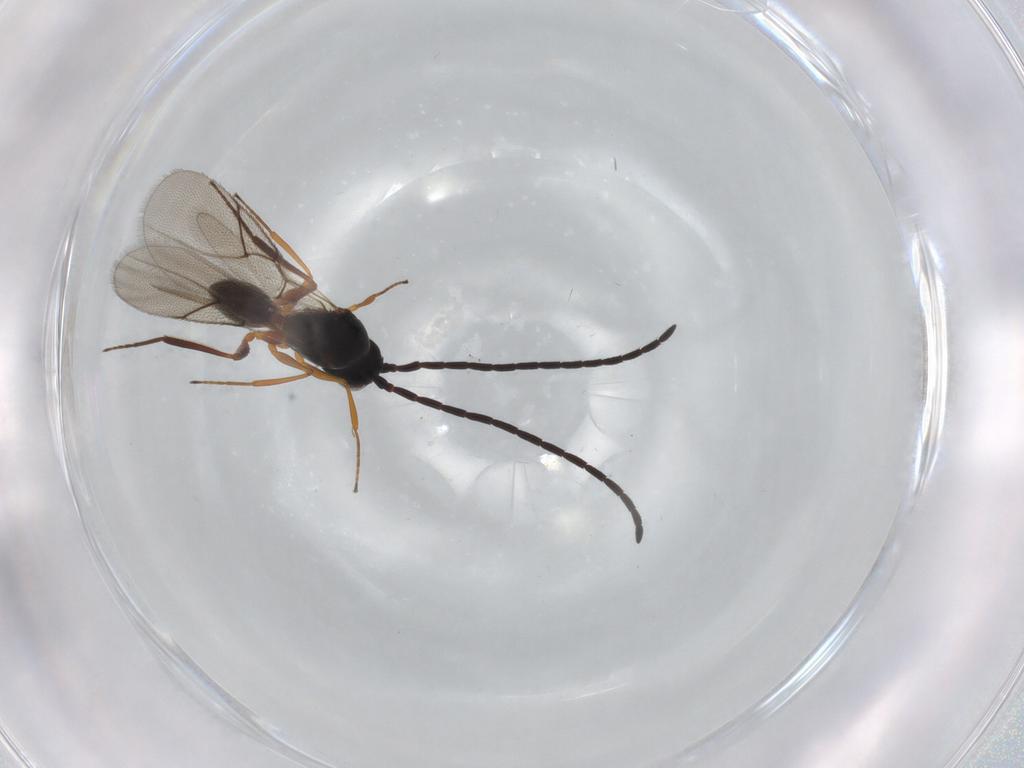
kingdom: Animalia
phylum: Arthropoda
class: Insecta
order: Hymenoptera
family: Figitidae
